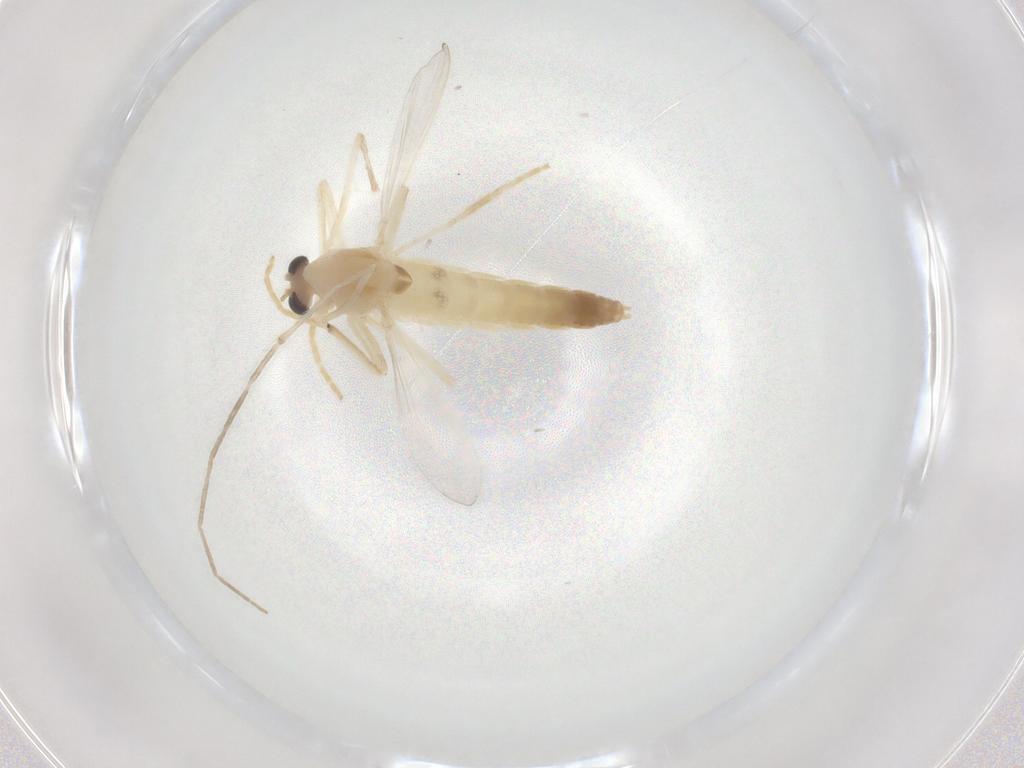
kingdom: Animalia
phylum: Arthropoda
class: Insecta
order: Diptera
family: Chironomidae
